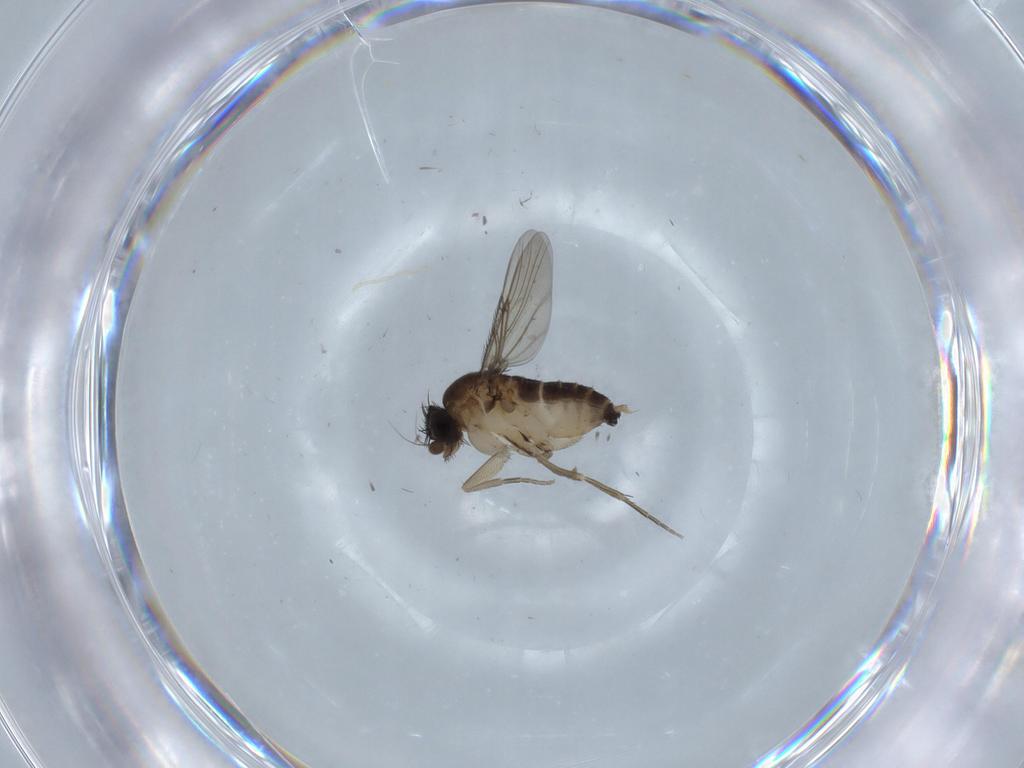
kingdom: Animalia
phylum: Arthropoda
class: Insecta
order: Diptera
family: Phoridae
